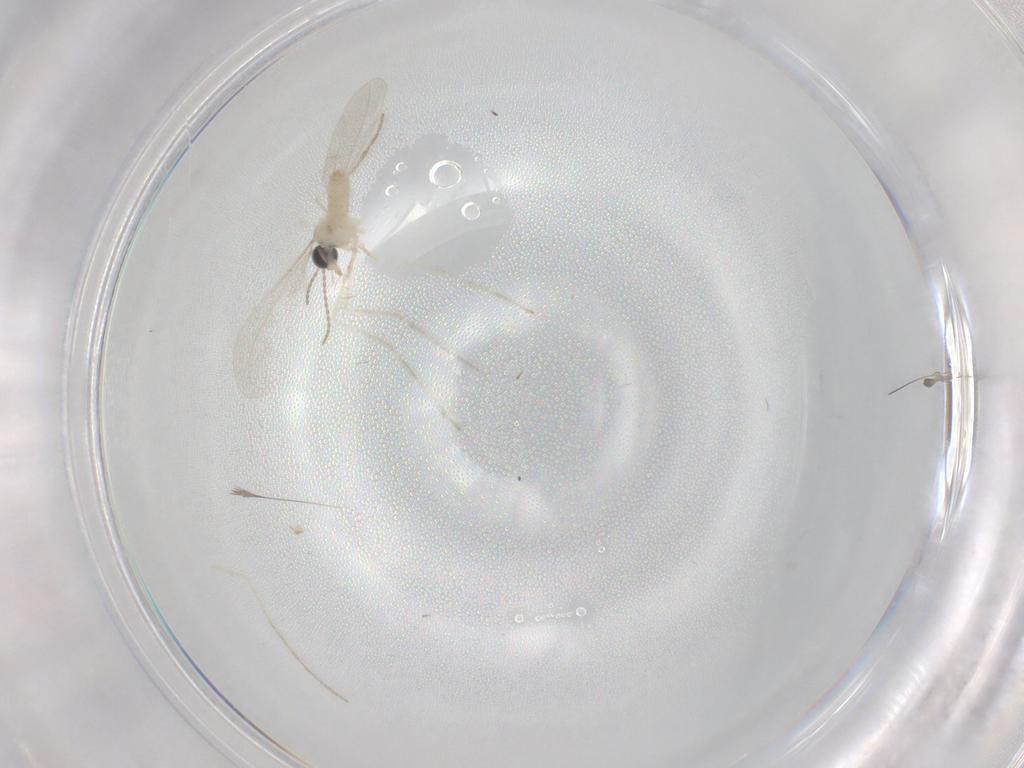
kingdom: Animalia
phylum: Arthropoda
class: Insecta
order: Diptera
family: Cecidomyiidae
